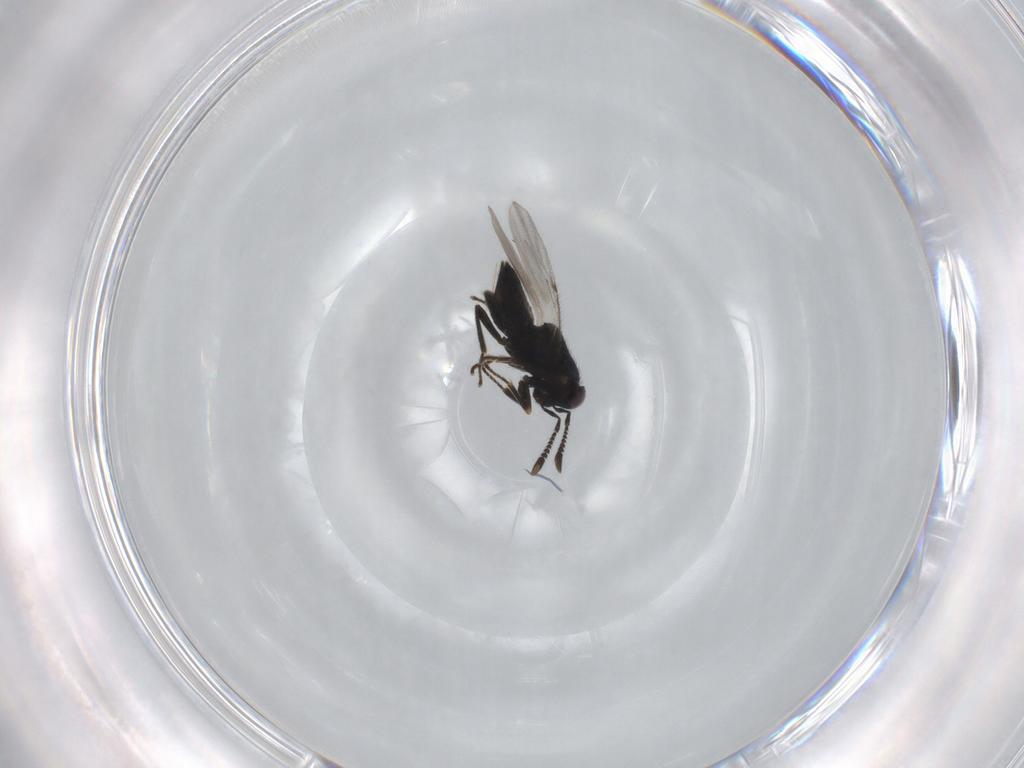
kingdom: Animalia
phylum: Arthropoda
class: Insecta
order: Hymenoptera
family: Encyrtidae
